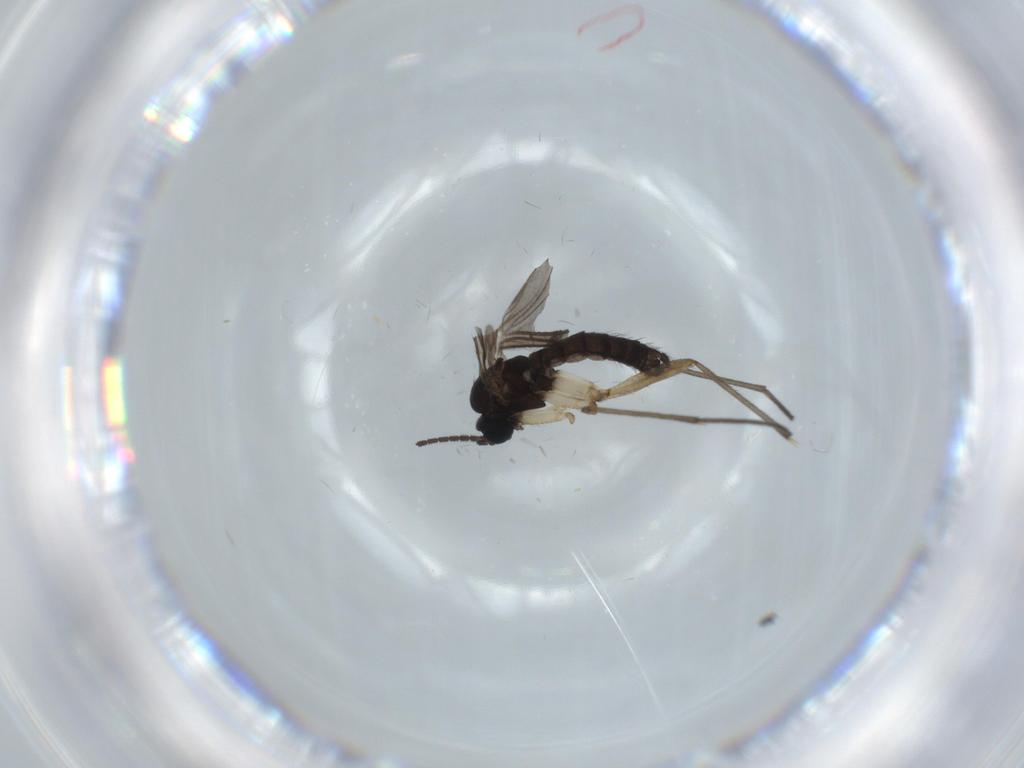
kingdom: Animalia
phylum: Arthropoda
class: Insecta
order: Diptera
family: Sciaridae
